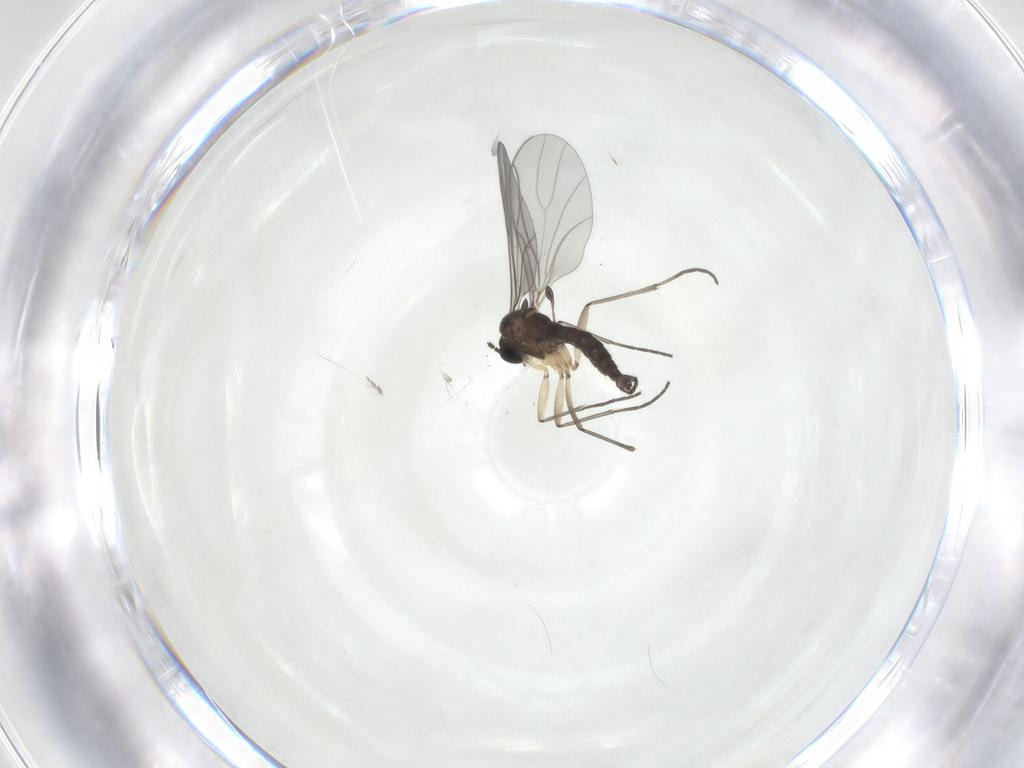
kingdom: Animalia
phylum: Arthropoda
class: Insecta
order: Diptera
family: Sciaridae
